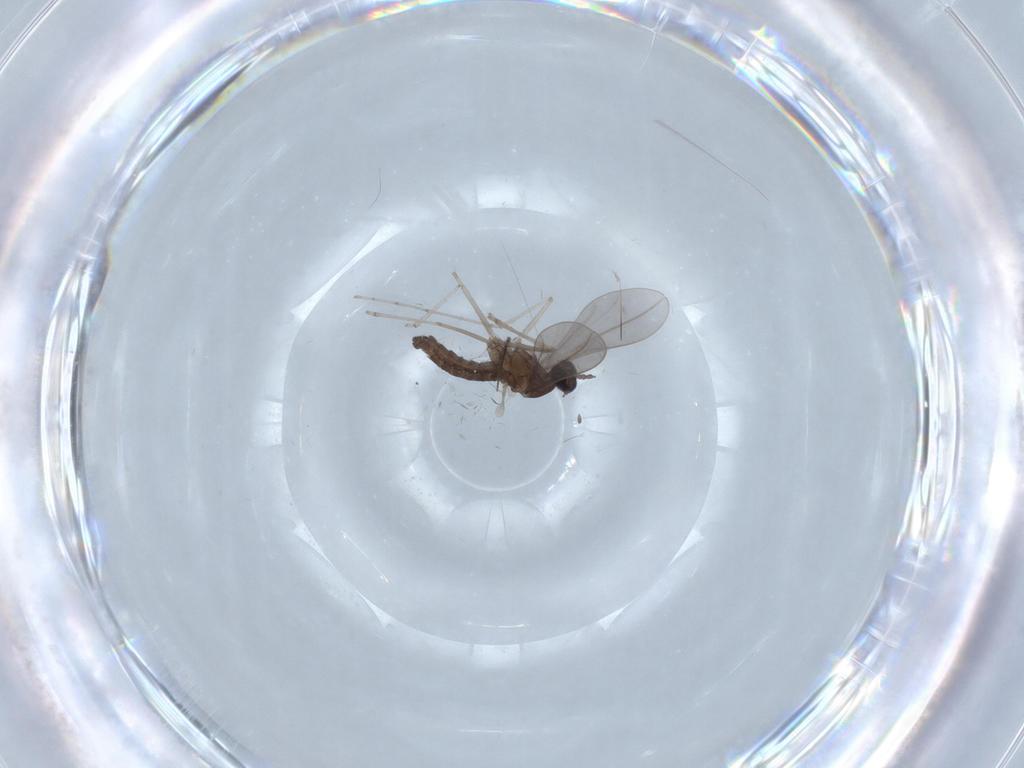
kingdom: Animalia
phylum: Arthropoda
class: Insecta
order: Diptera
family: Cecidomyiidae
